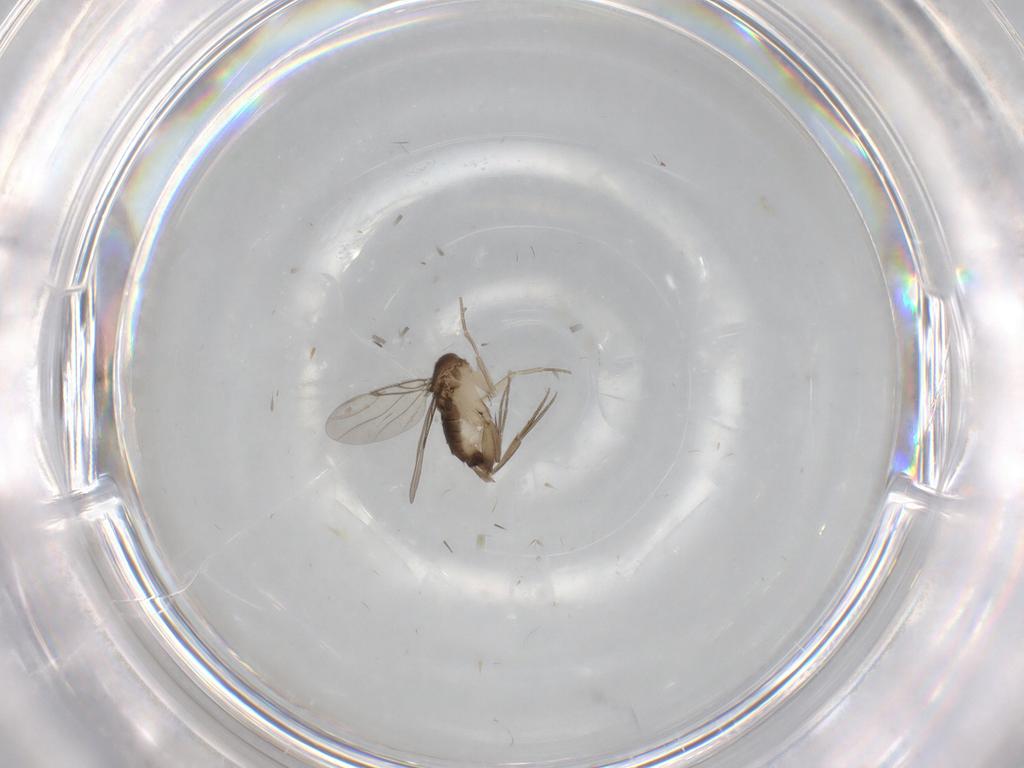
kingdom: Animalia
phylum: Arthropoda
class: Insecta
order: Diptera
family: Phoridae
